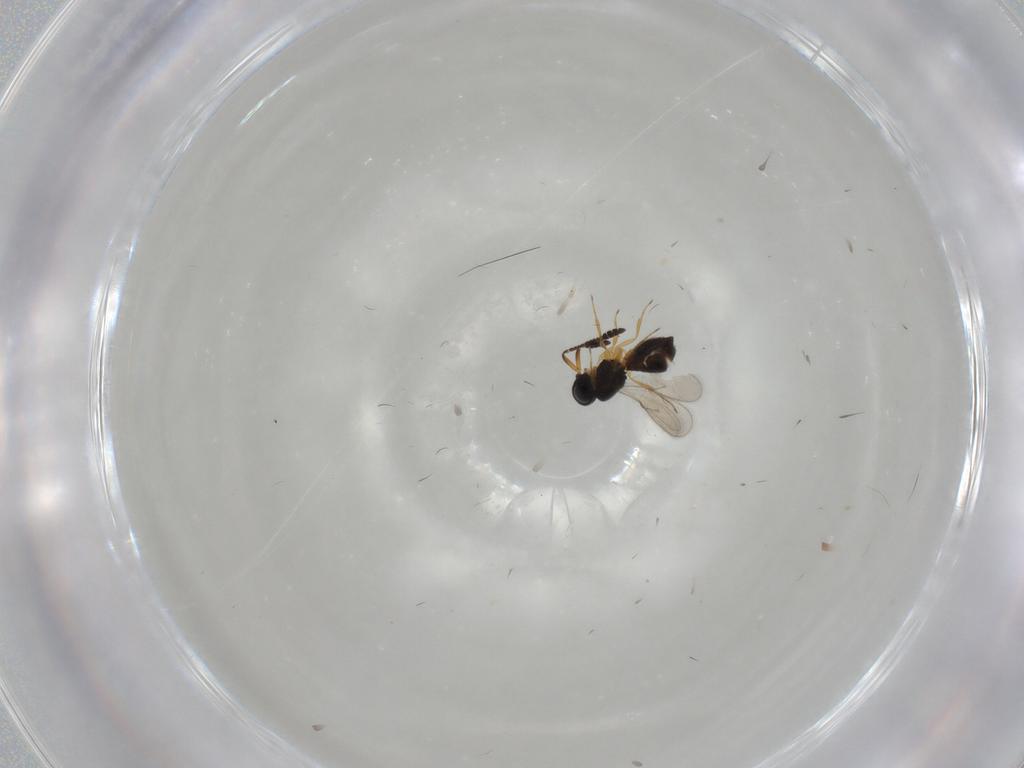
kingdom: Animalia
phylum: Arthropoda
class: Insecta
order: Hymenoptera
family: Scelionidae
